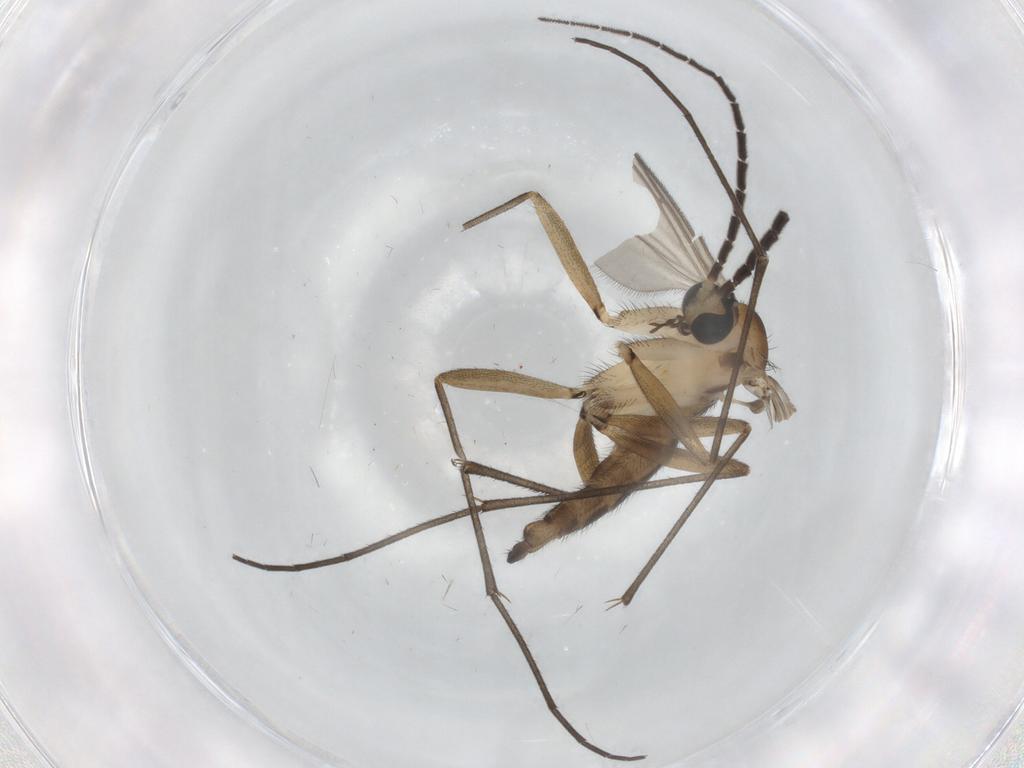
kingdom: Animalia
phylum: Arthropoda
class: Insecta
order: Diptera
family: Sciaridae
